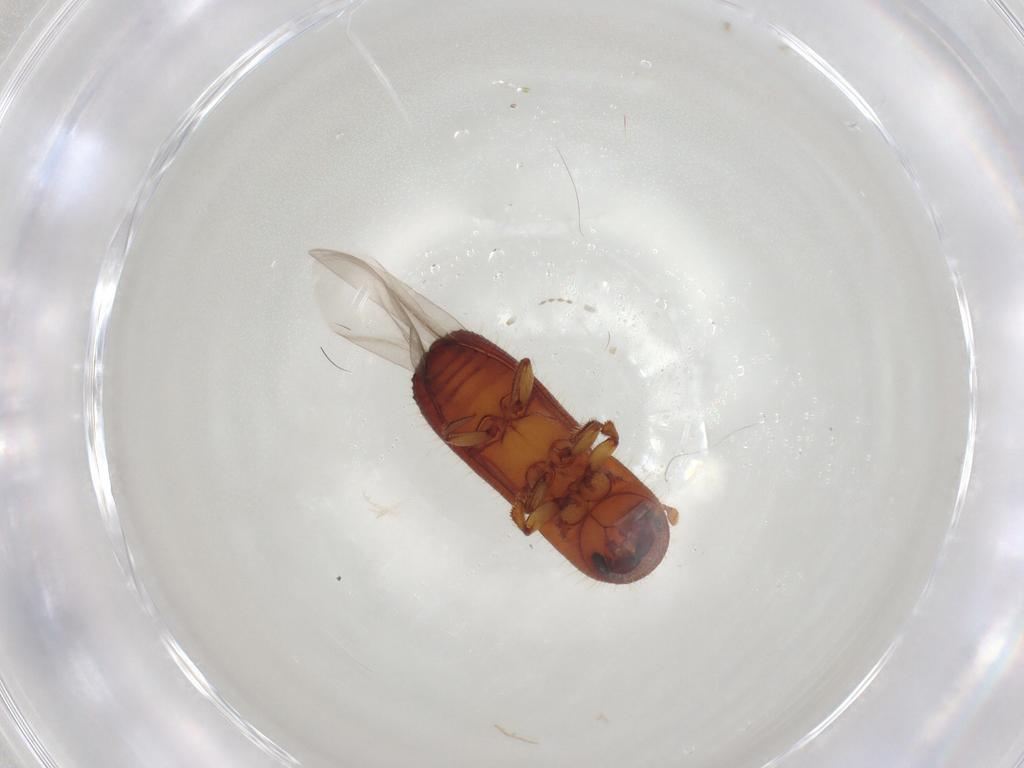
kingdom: Animalia
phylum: Arthropoda
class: Insecta
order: Coleoptera
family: Curculionidae
